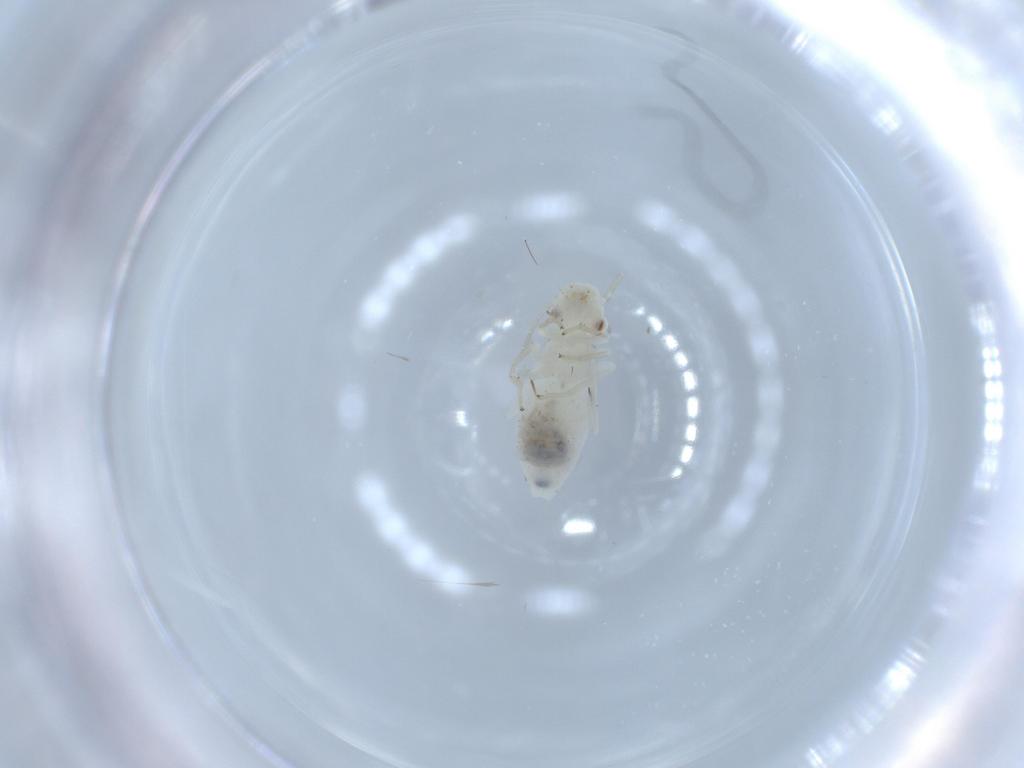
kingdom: Animalia
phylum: Arthropoda
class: Insecta
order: Psocodea
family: Caeciliusidae
